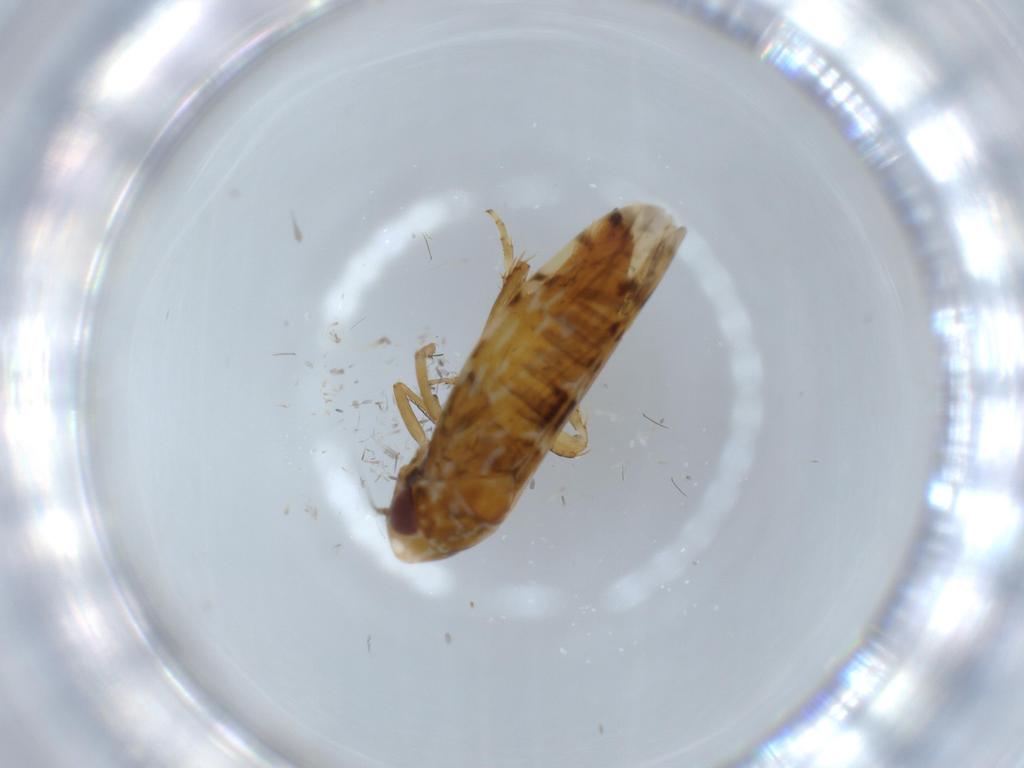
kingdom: Animalia
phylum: Arthropoda
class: Insecta
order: Hemiptera
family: Cicadellidae
